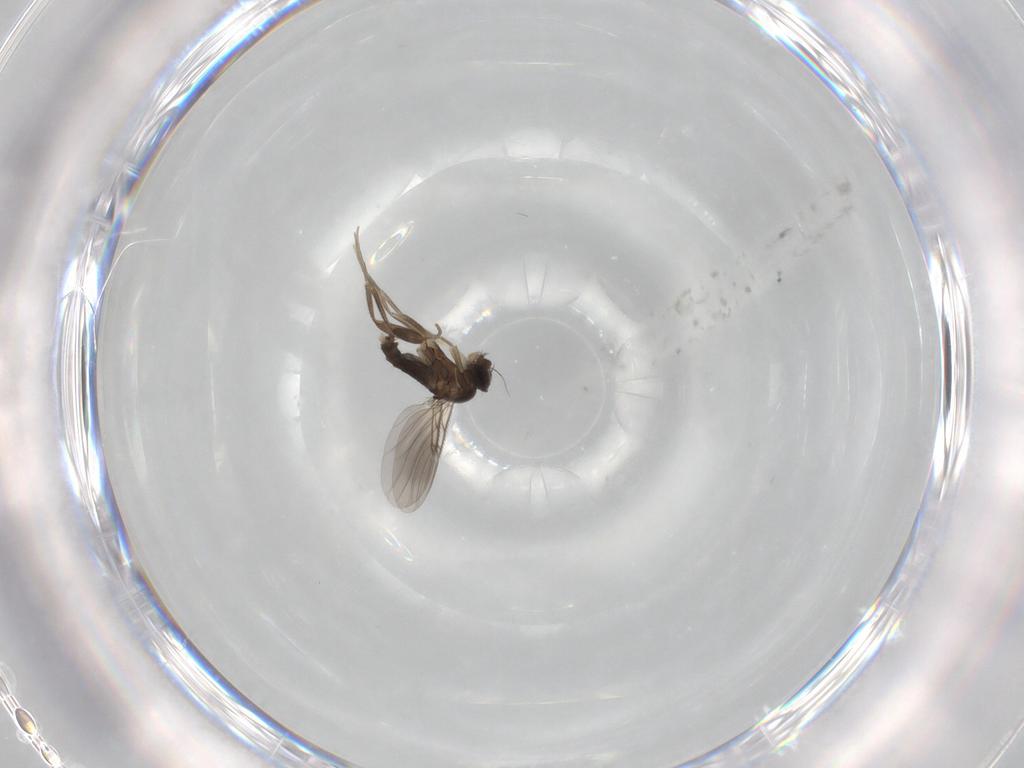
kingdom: Animalia
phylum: Arthropoda
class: Insecta
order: Diptera
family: Phoridae
